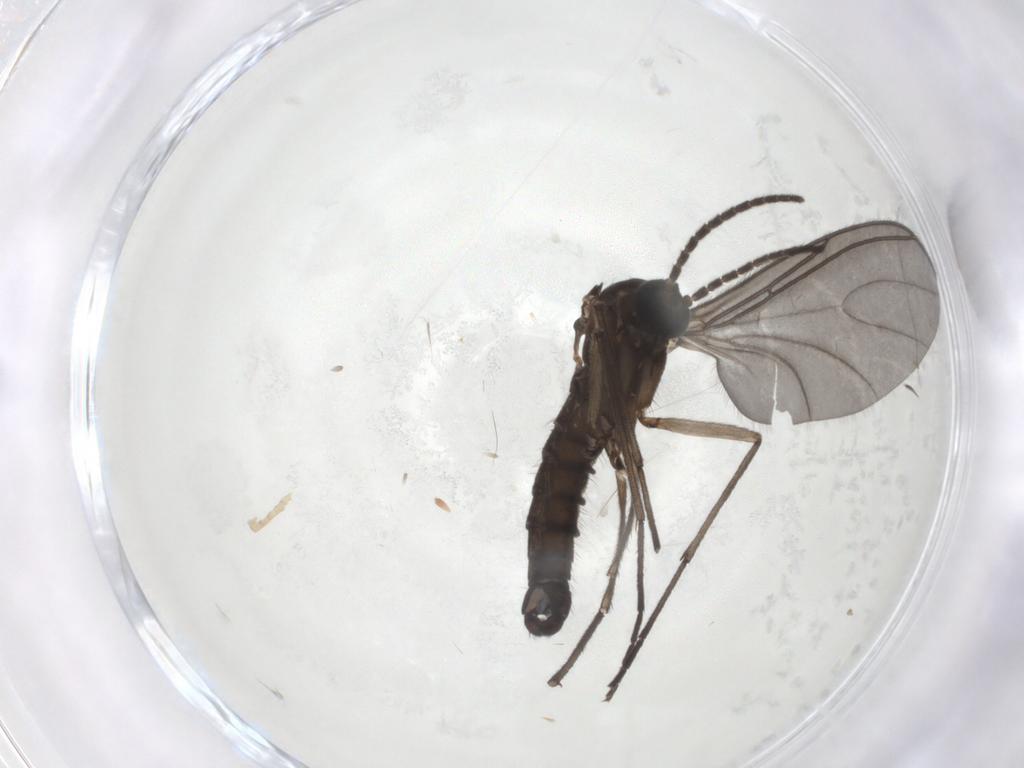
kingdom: Animalia
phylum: Arthropoda
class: Insecta
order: Diptera
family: Sciaridae
